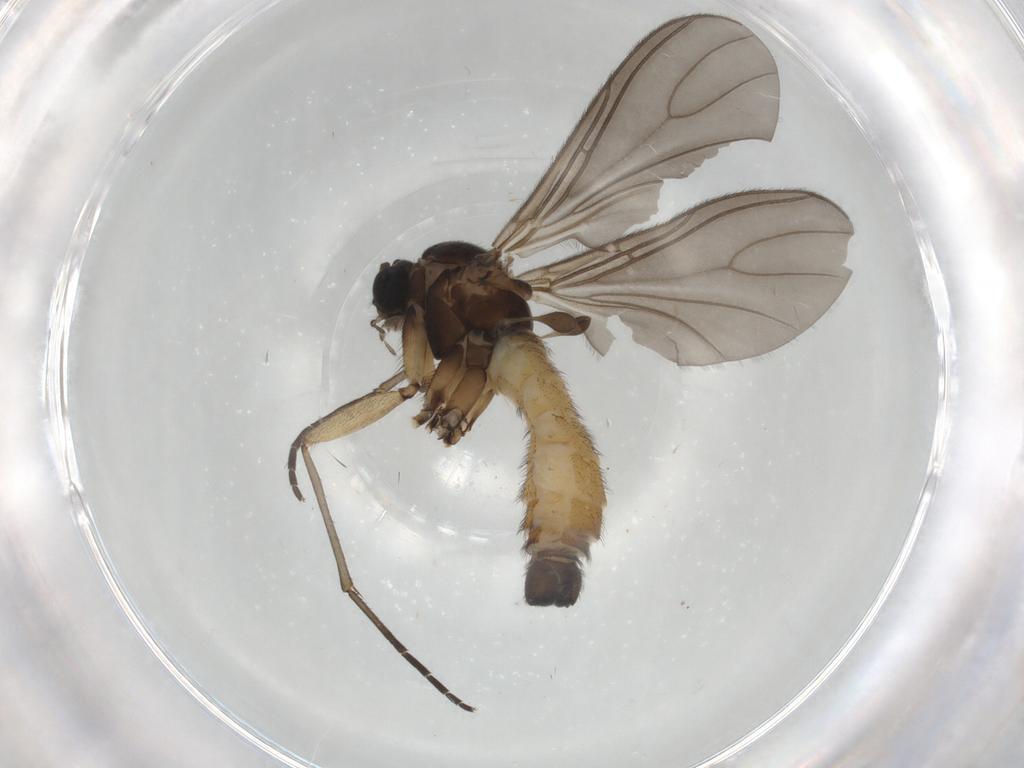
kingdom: Animalia
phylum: Arthropoda
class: Insecta
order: Diptera
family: Sciaridae
